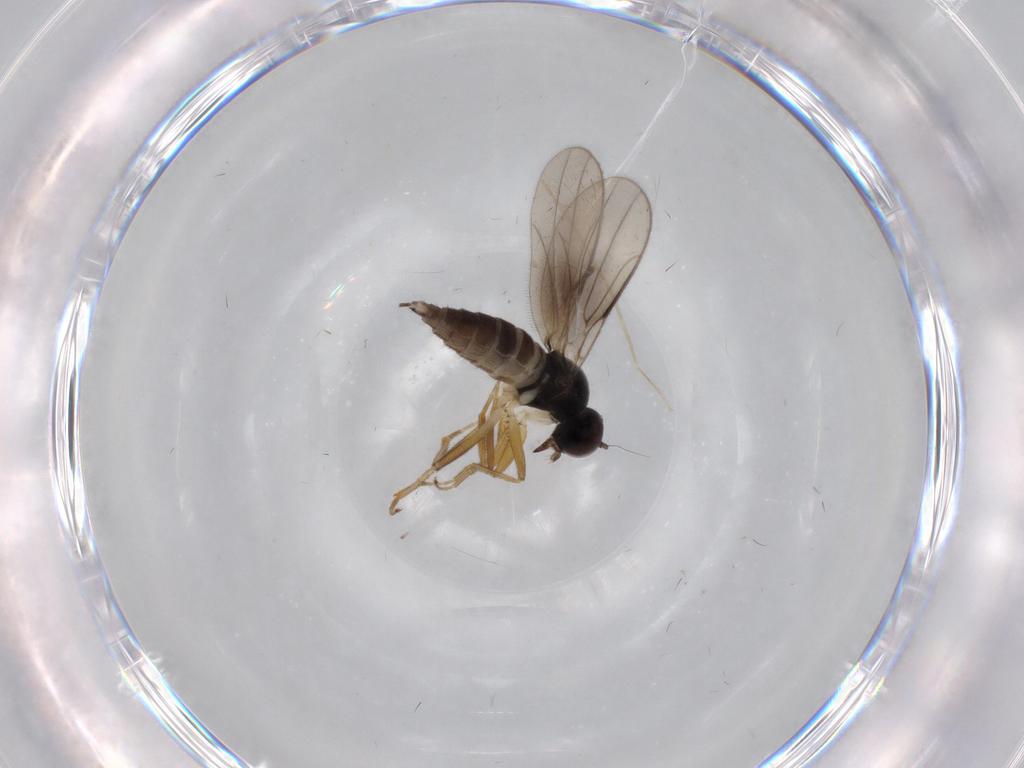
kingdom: Animalia
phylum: Arthropoda
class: Insecta
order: Diptera
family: Hybotidae
